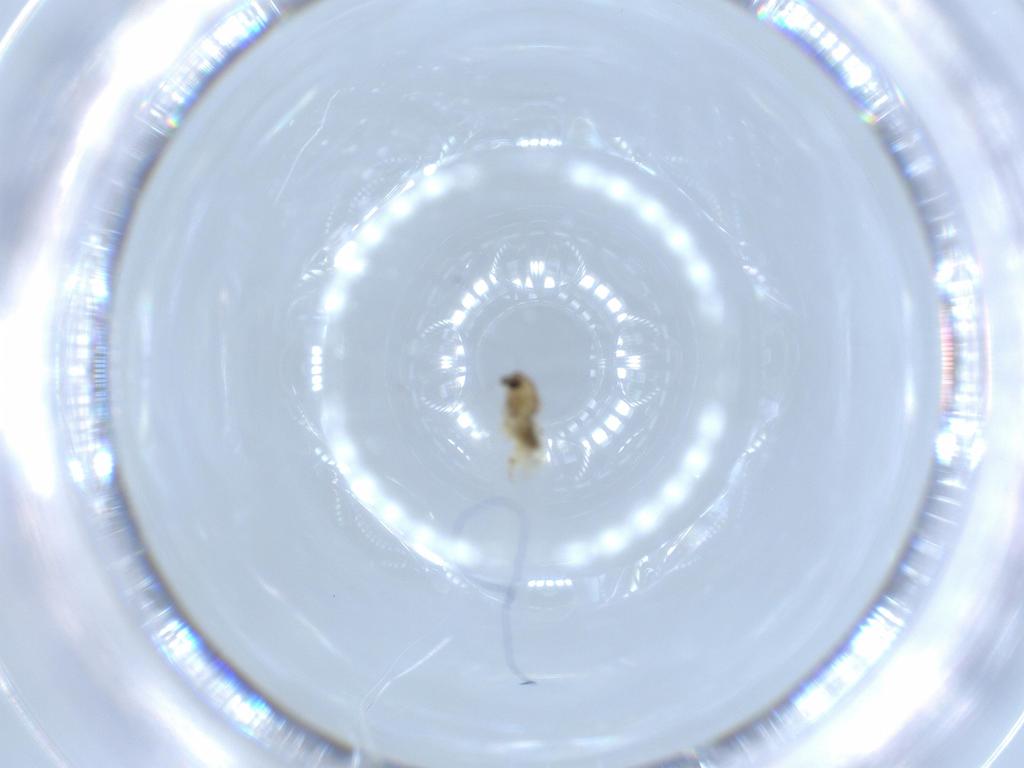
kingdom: Animalia
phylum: Arthropoda
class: Insecta
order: Diptera
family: Chironomidae
